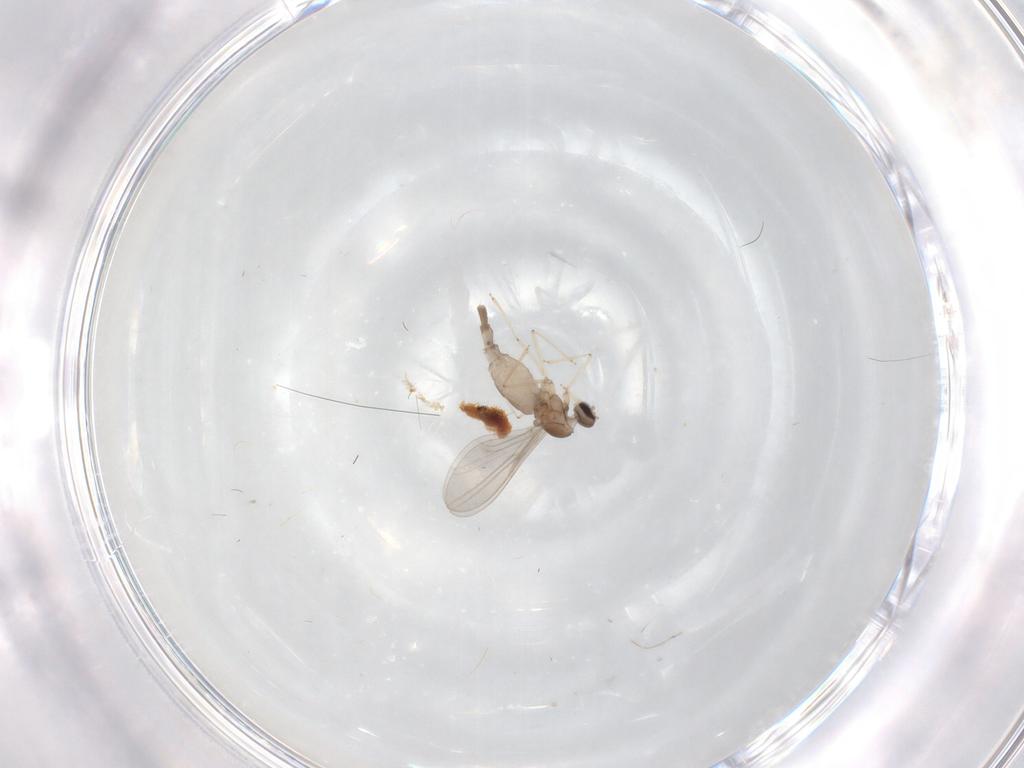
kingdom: Animalia
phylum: Arthropoda
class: Insecta
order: Diptera
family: Cecidomyiidae
